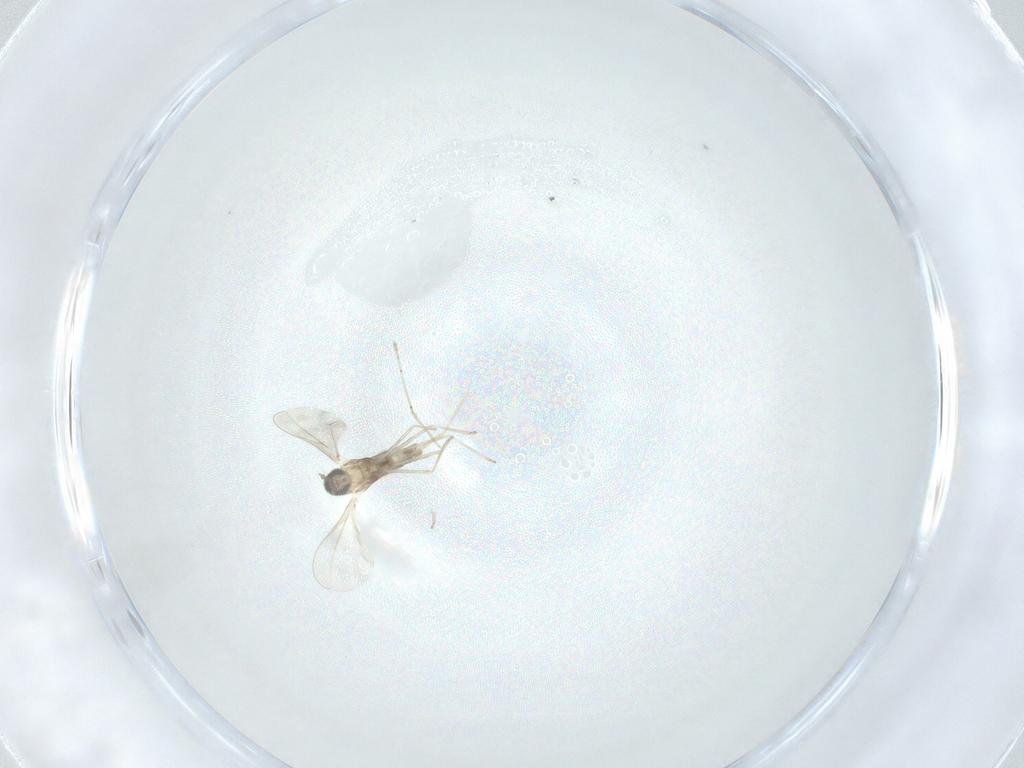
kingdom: Animalia
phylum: Arthropoda
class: Insecta
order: Diptera
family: Cecidomyiidae
